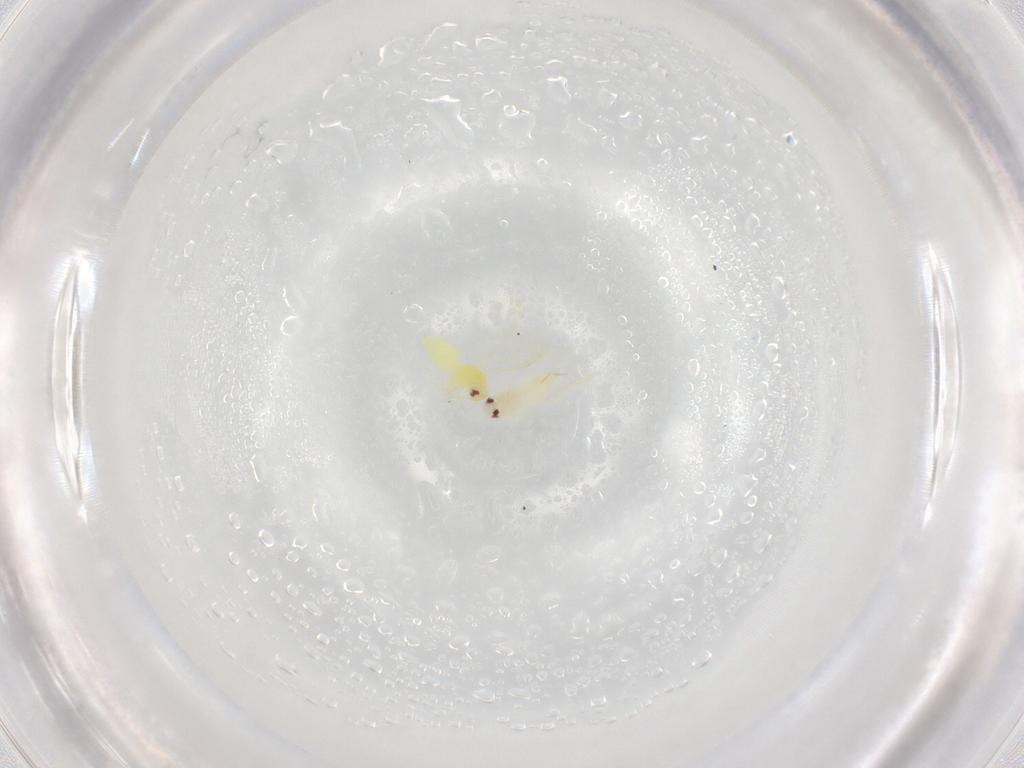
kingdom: Animalia
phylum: Arthropoda
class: Insecta
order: Hemiptera
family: Aleyrodidae
